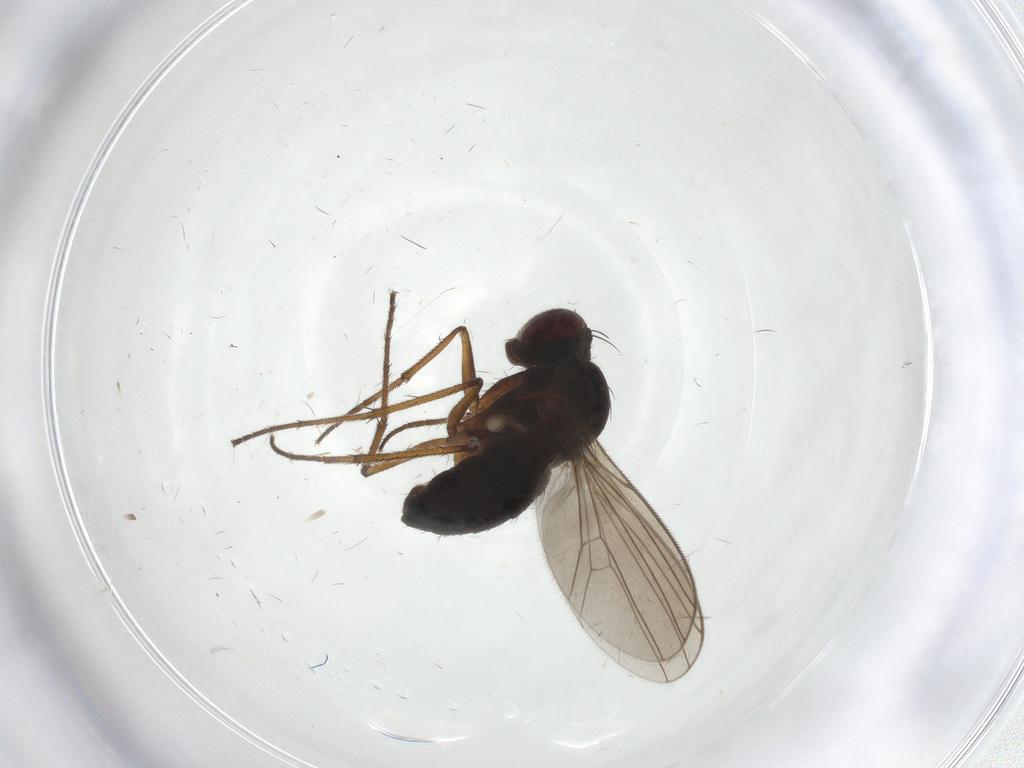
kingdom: Animalia
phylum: Arthropoda
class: Insecta
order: Diptera
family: Dolichopodidae
